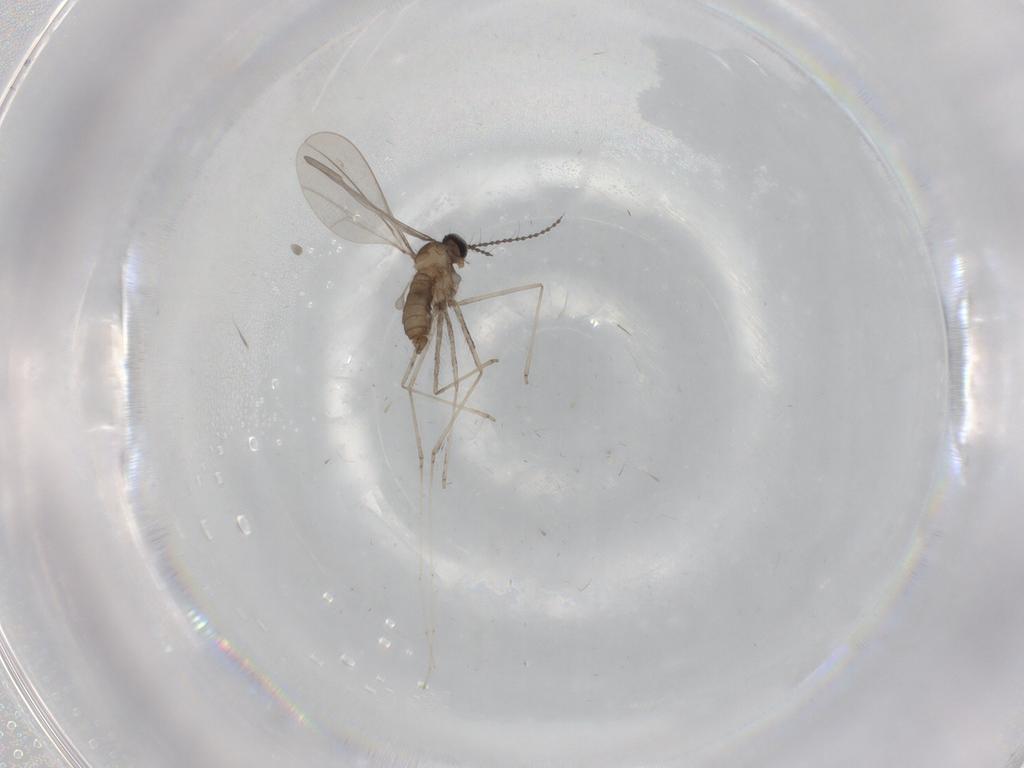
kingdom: Animalia
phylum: Arthropoda
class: Insecta
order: Diptera
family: Cecidomyiidae
